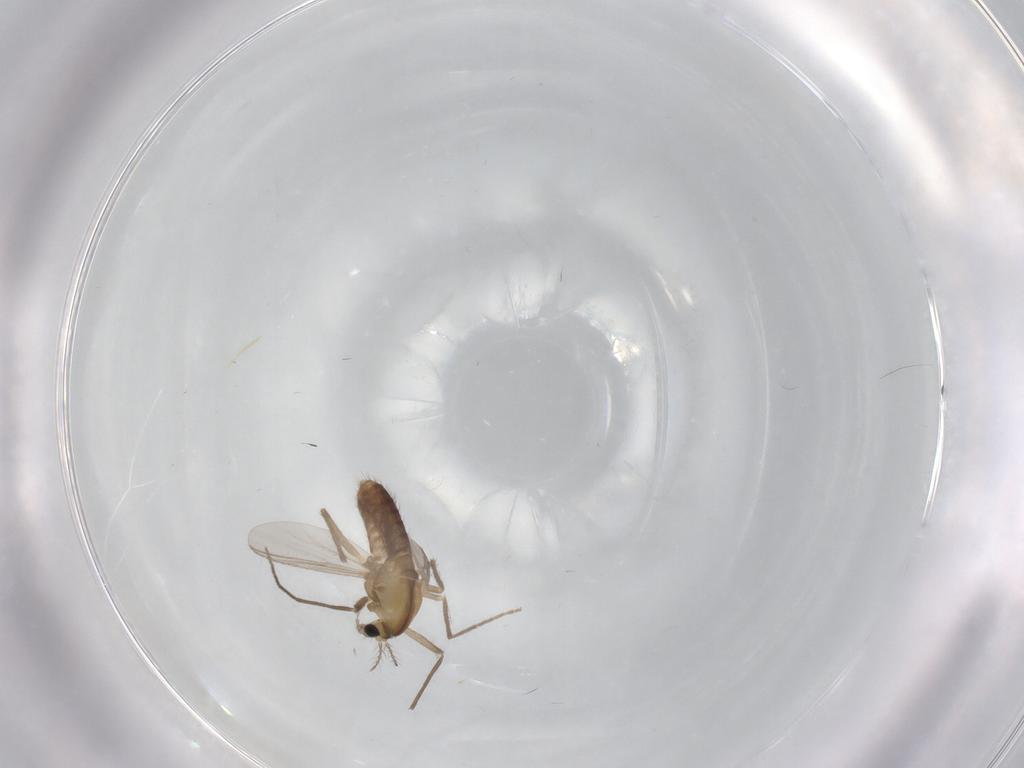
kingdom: Animalia
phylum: Arthropoda
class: Insecta
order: Diptera
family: Chironomidae
